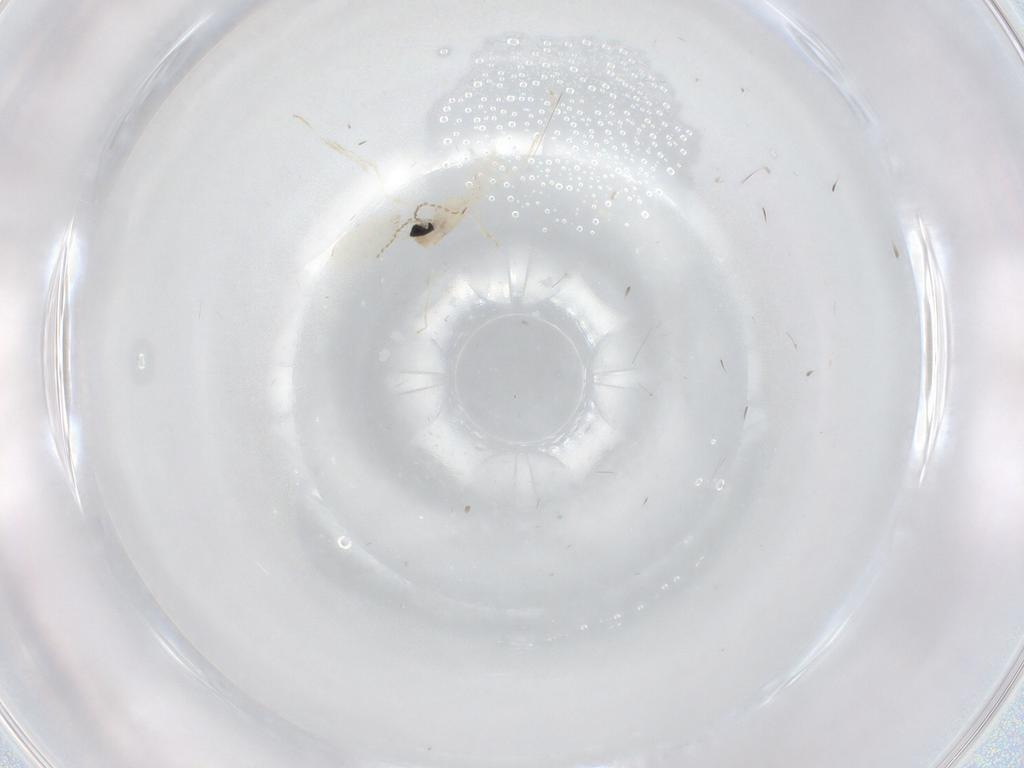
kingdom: Animalia
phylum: Arthropoda
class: Insecta
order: Diptera
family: Cecidomyiidae
